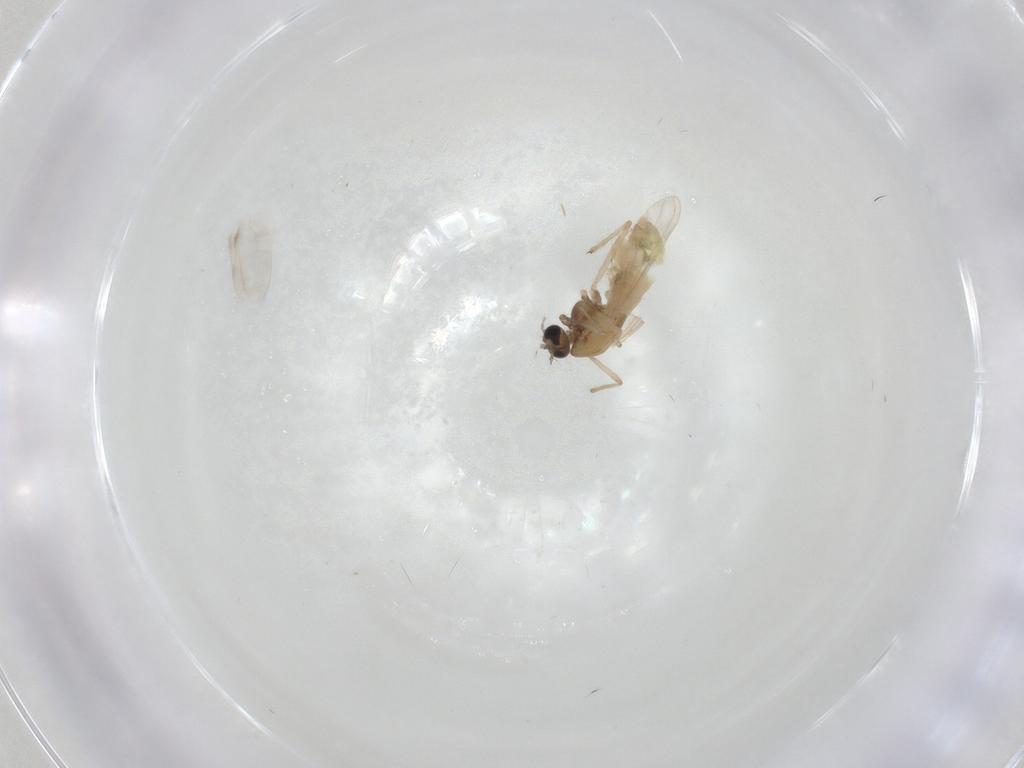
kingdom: Animalia
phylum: Arthropoda
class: Insecta
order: Diptera
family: Chironomidae
